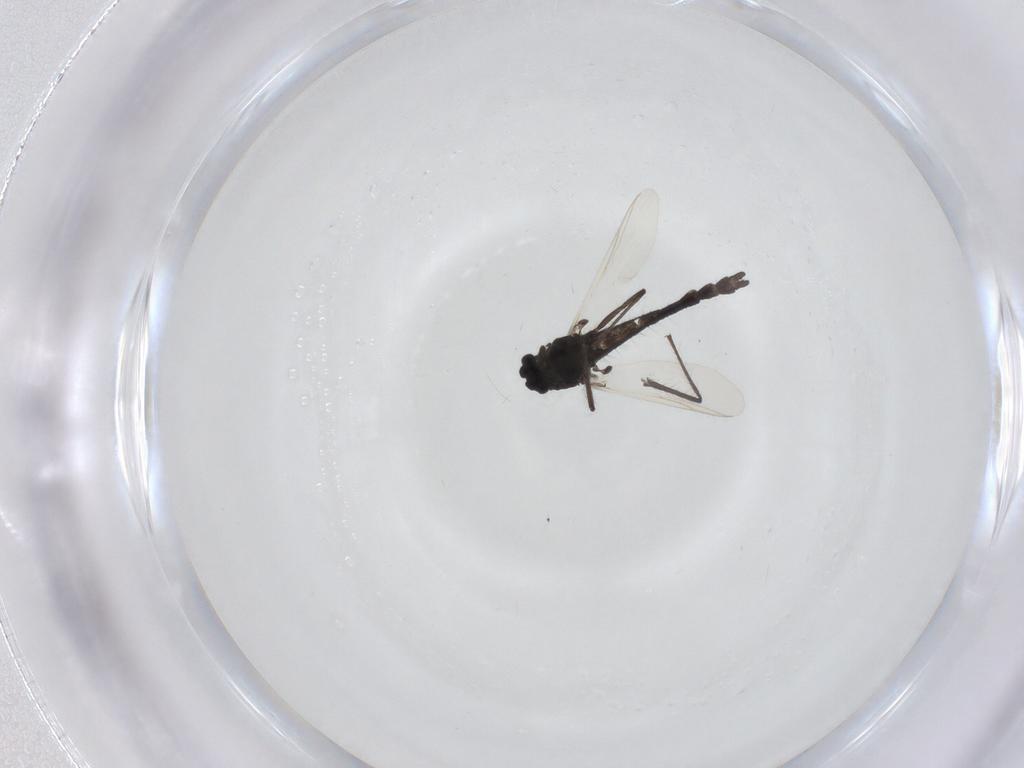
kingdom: Animalia
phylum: Arthropoda
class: Insecta
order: Diptera
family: Chironomidae
